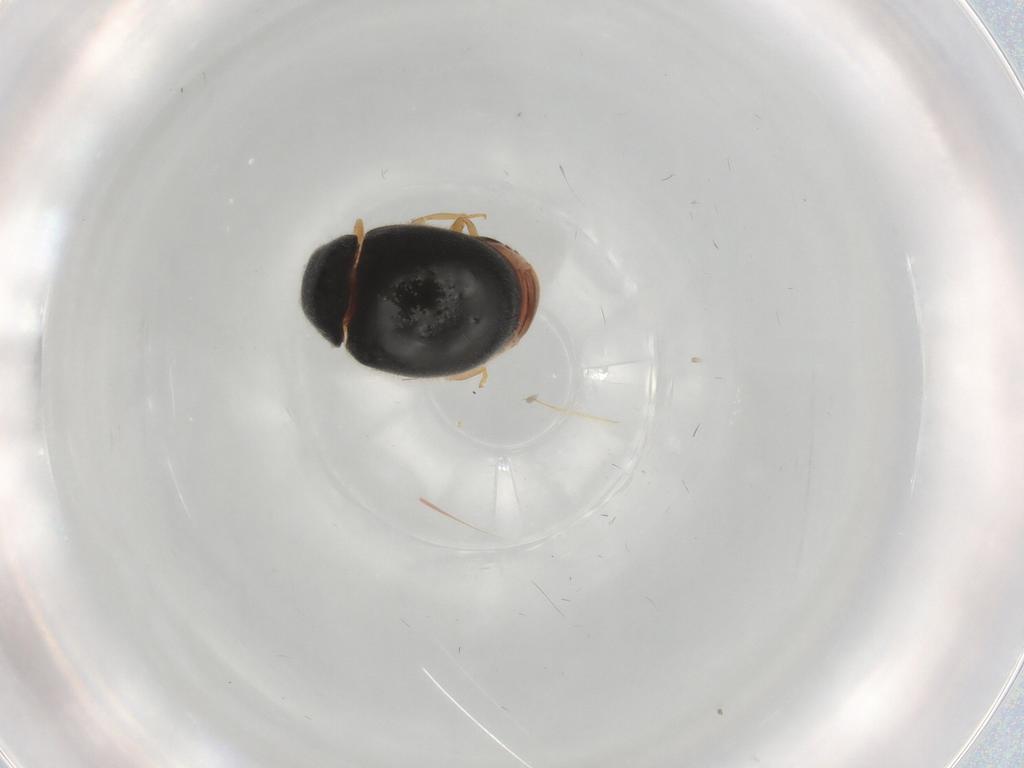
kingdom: Animalia
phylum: Arthropoda
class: Insecta
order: Coleoptera
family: Coccinellidae
